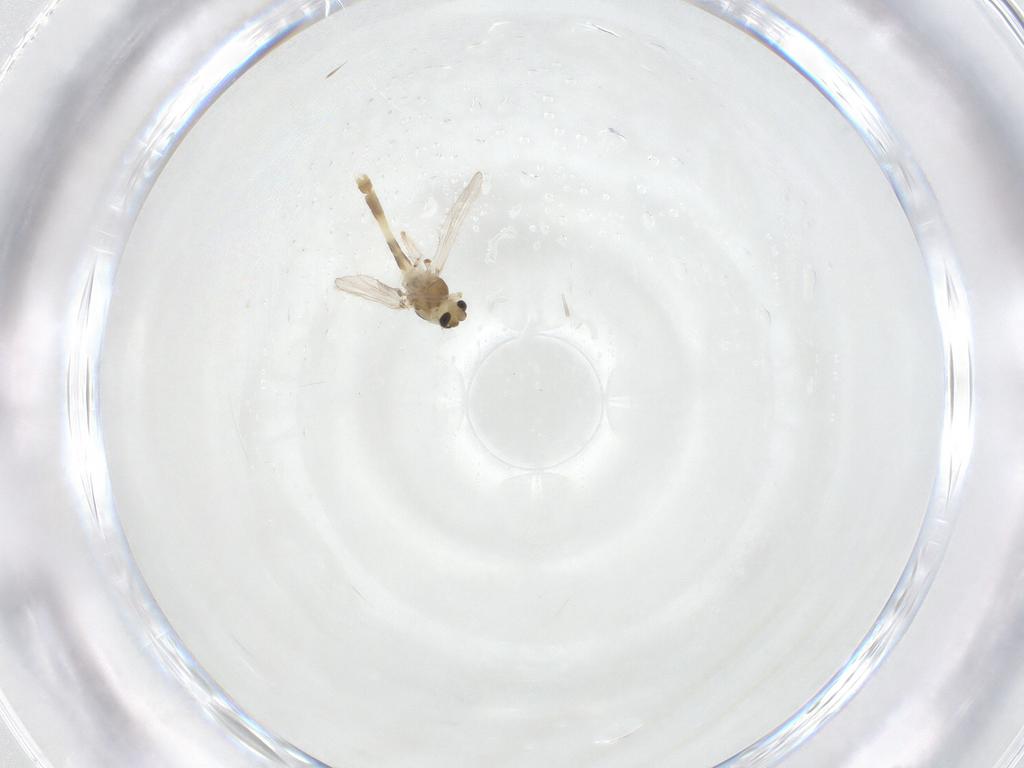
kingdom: Animalia
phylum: Arthropoda
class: Insecta
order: Diptera
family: Chironomidae
